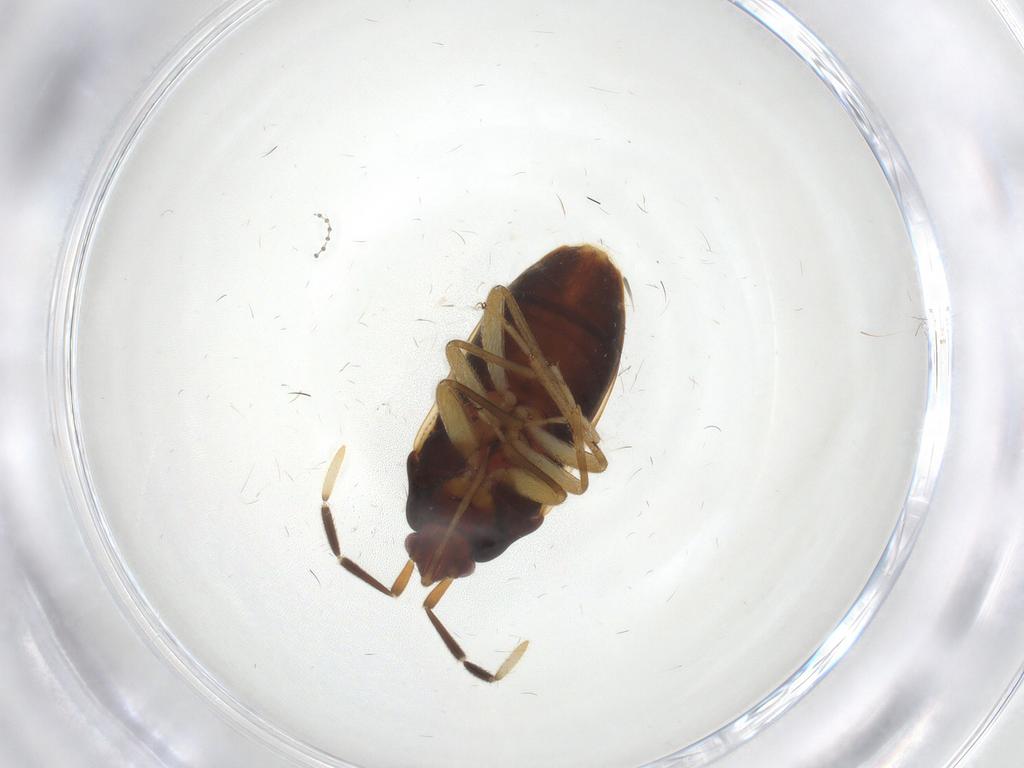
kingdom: Animalia
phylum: Arthropoda
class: Insecta
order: Hemiptera
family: Rhyparochromidae
